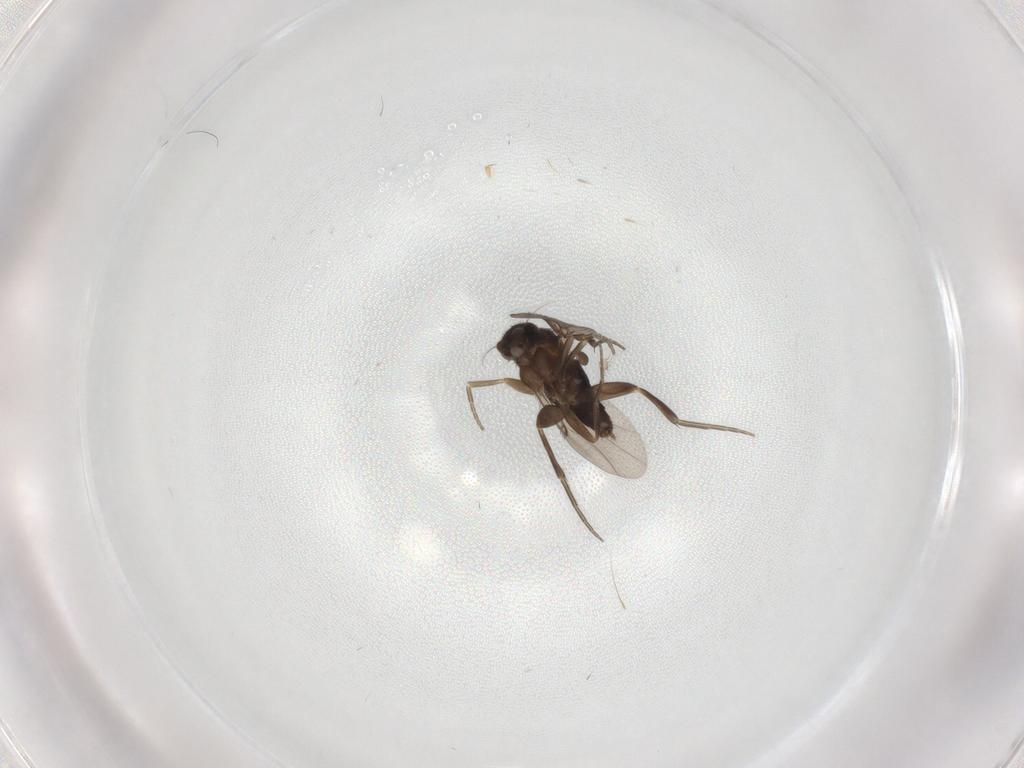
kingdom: Animalia
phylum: Arthropoda
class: Insecta
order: Diptera
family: Phoridae
